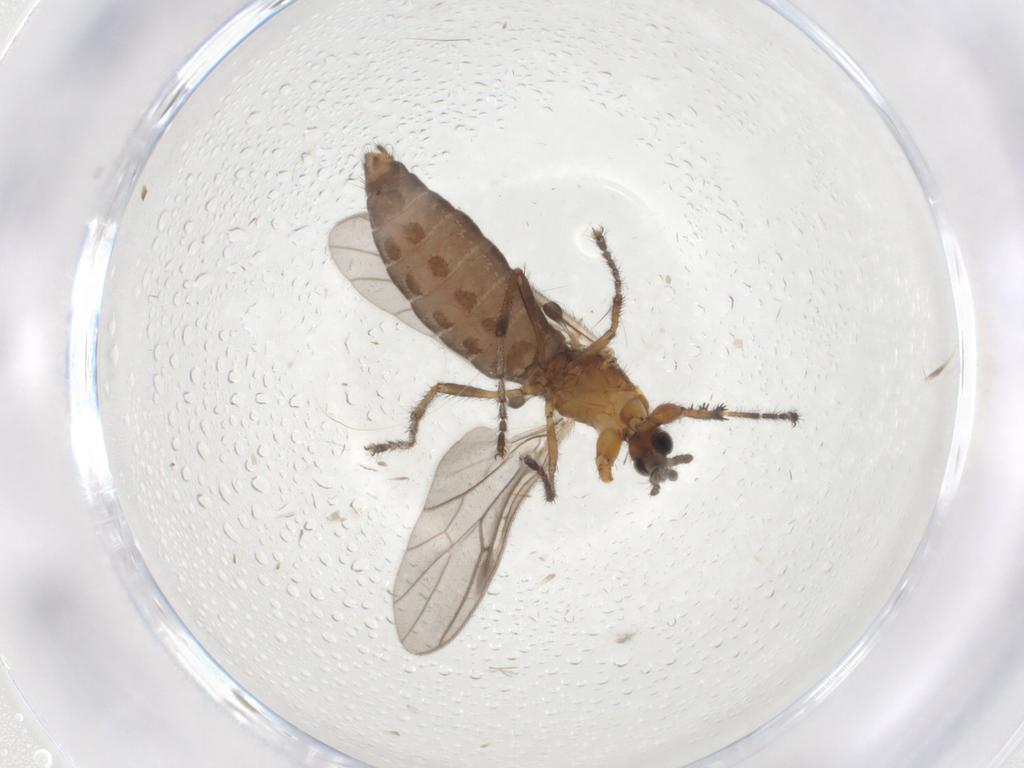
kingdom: Animalia
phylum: Arthropoda
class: Insecta
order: Diptera
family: Bibionidae
